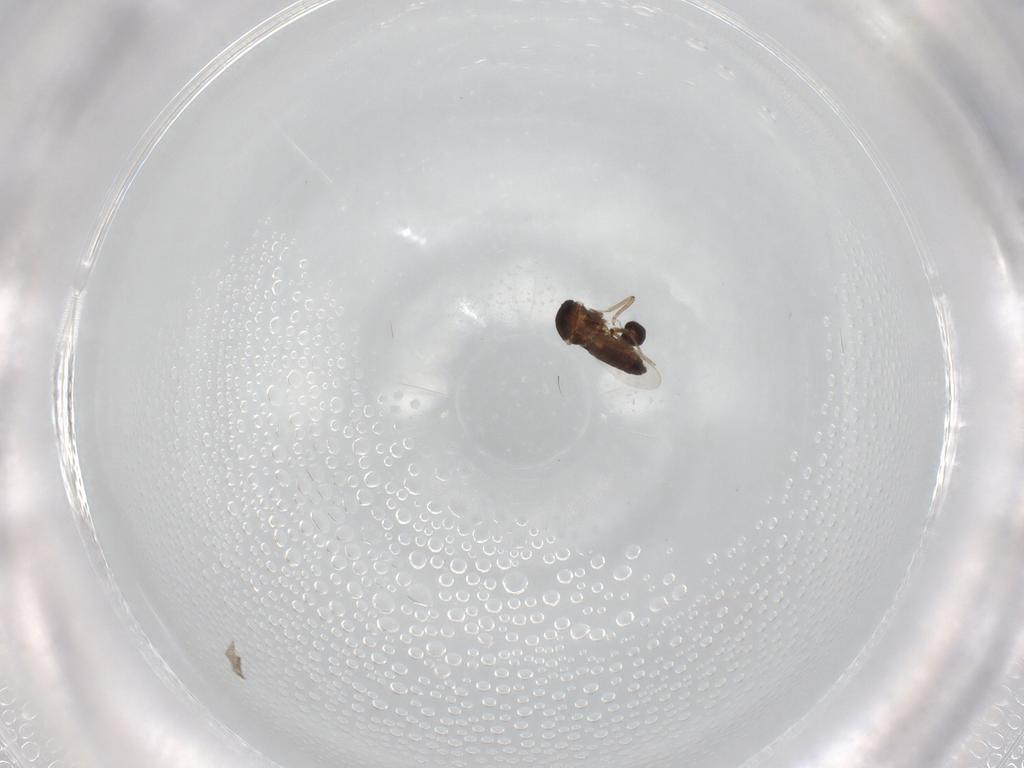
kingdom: Animalia
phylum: Arthropoda
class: Insecta
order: Diptera
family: Ceratopogonidae
